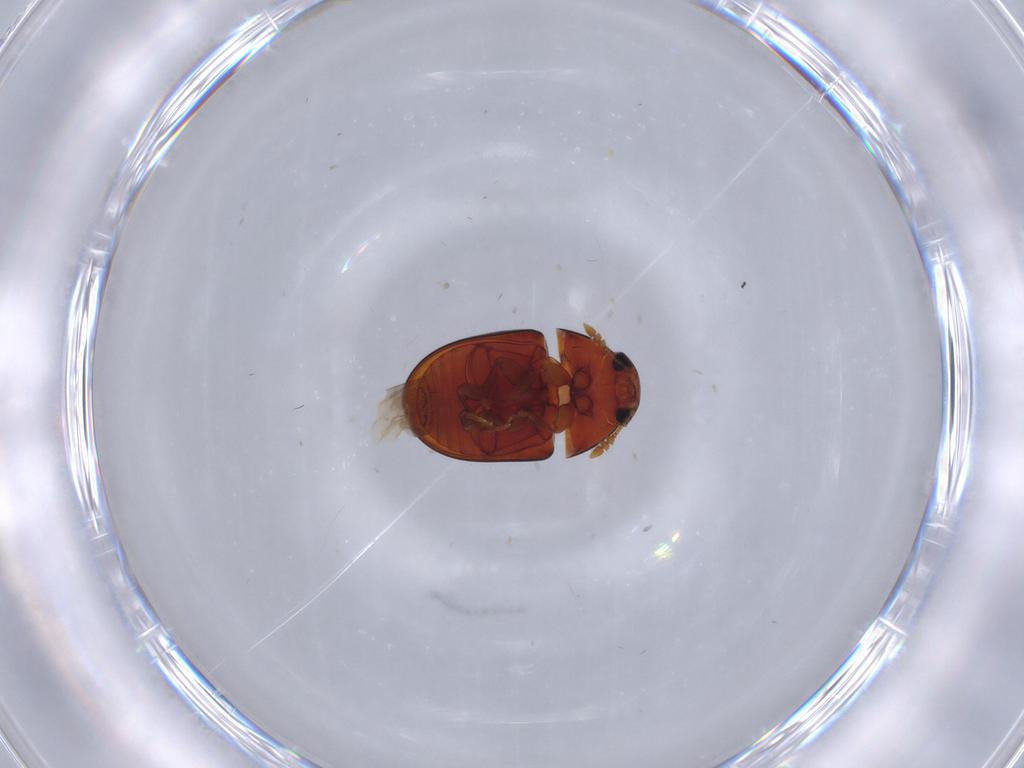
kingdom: Animalia
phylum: Arthropoda
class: Insecta
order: Coleoptera
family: Phalacridae
